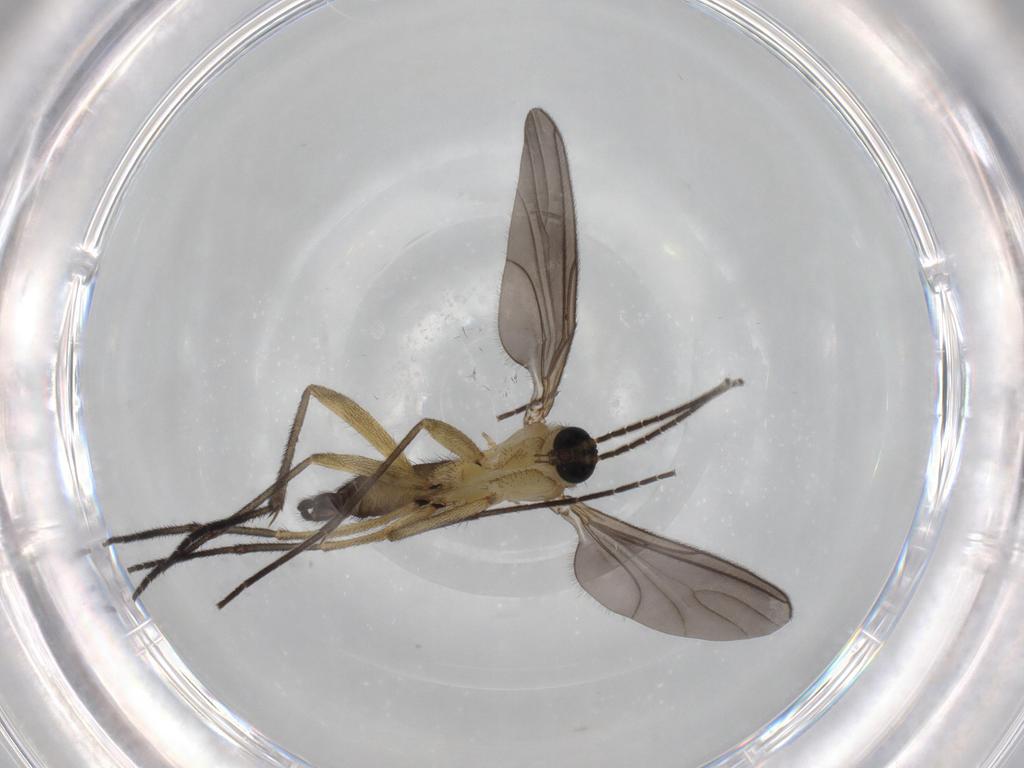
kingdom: Animalia
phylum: Arthropoda
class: Insecta
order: Diptera
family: Sciaridae
